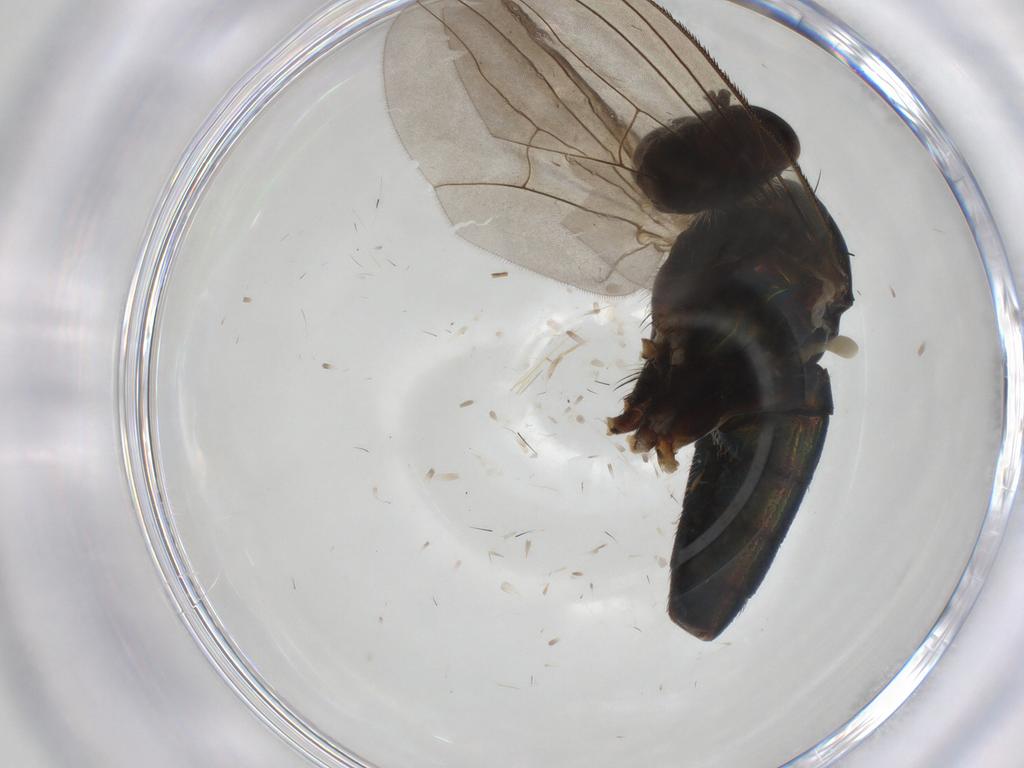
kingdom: Animalia
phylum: Arthropoda
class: Insecta
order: Diptera
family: Dolichopodidae
